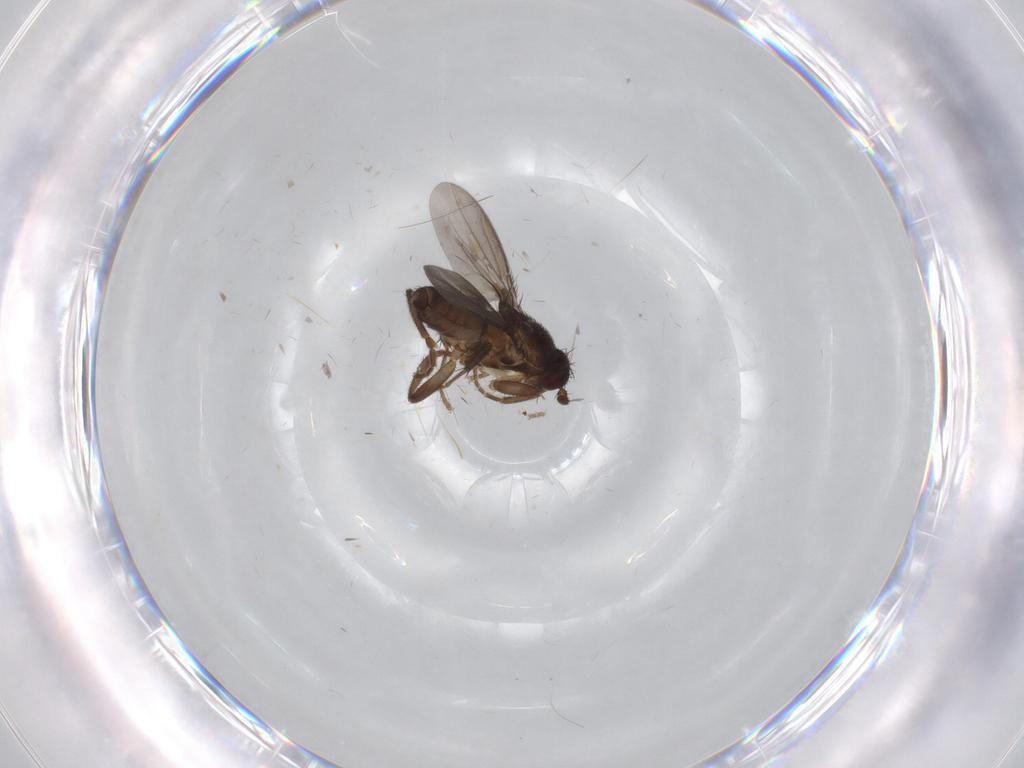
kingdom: Animalia
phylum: Arthropoda
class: Insecta
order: Diptera
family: Sphaeroceridae
